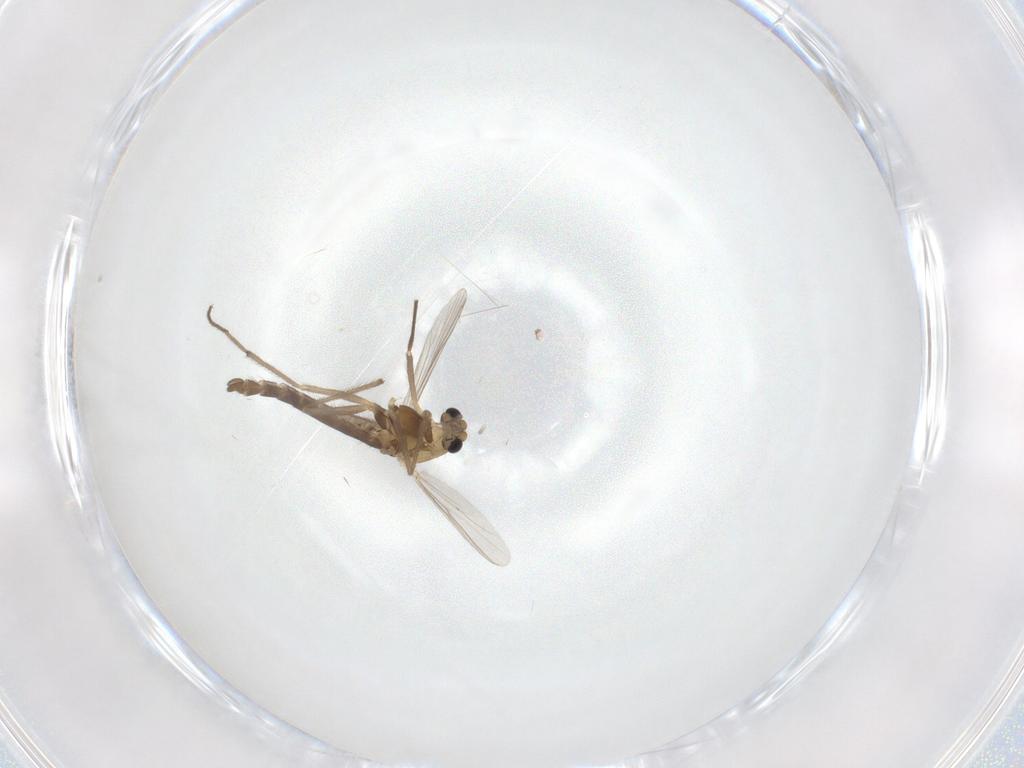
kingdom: Animalia
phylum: Arthropoda
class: Insecta
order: Diptera
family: Chironomidae
